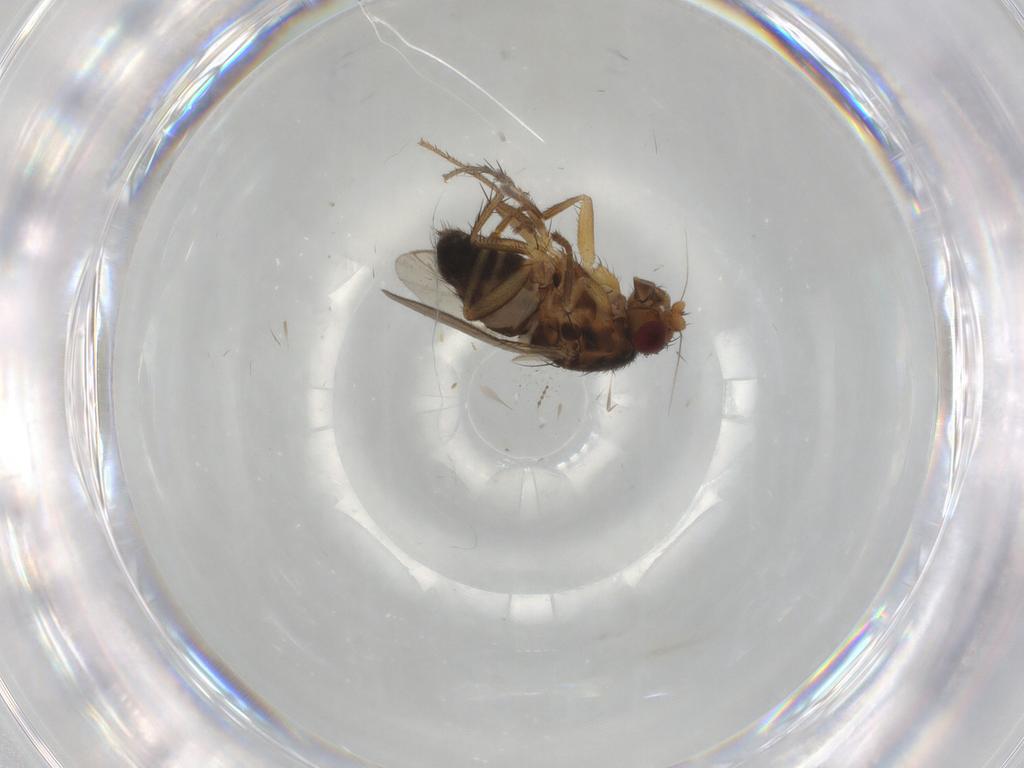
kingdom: Animalia
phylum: Arthropoda
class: Insecta
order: Diptera
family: Sphaeroceridae
